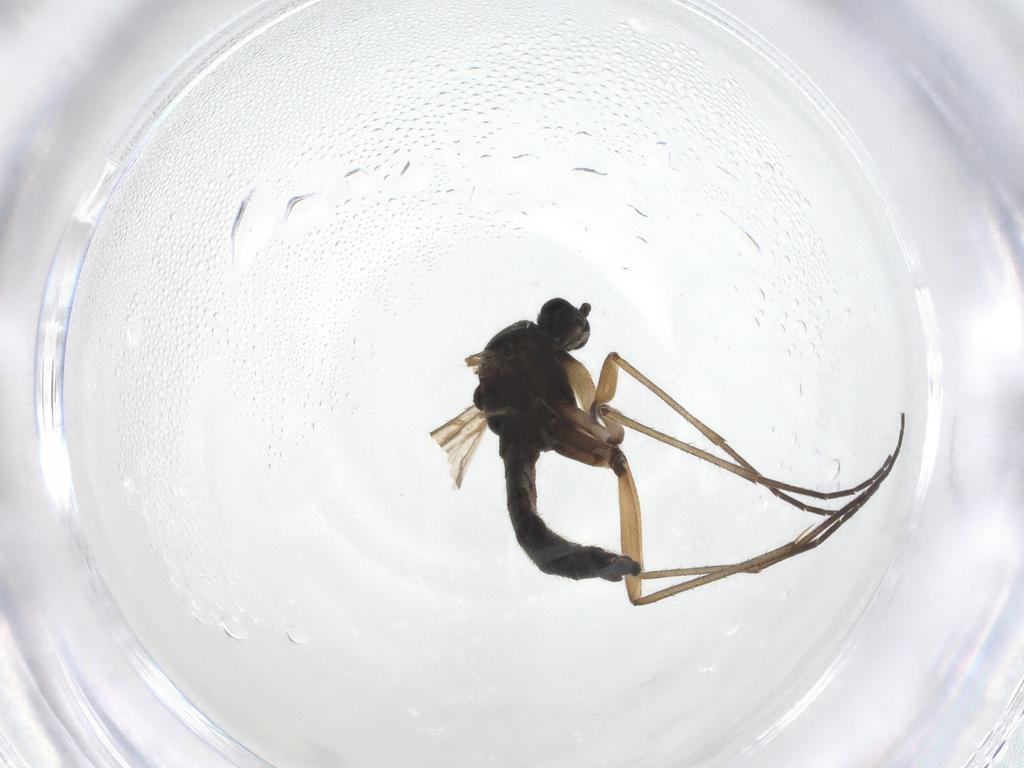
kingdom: Animalia
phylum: Arthropoda
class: Insecta
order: Diptera
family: Sciaridae
